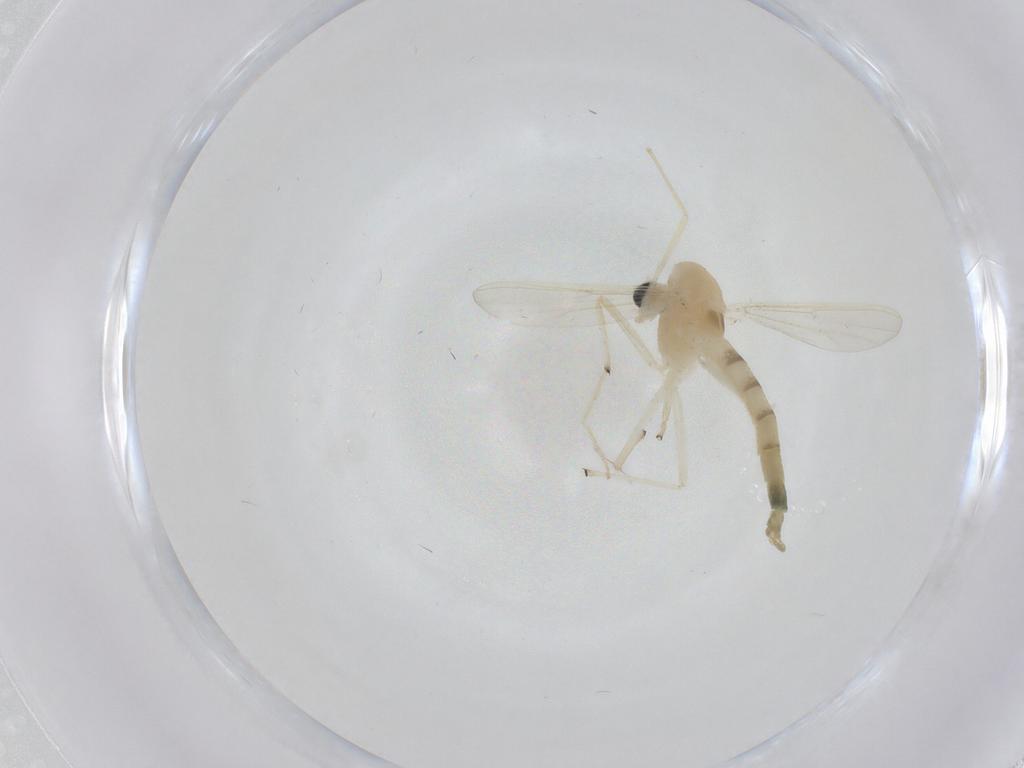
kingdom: Animalia
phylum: Arthropoda
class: Insecta
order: Diptera
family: Chironomidae
